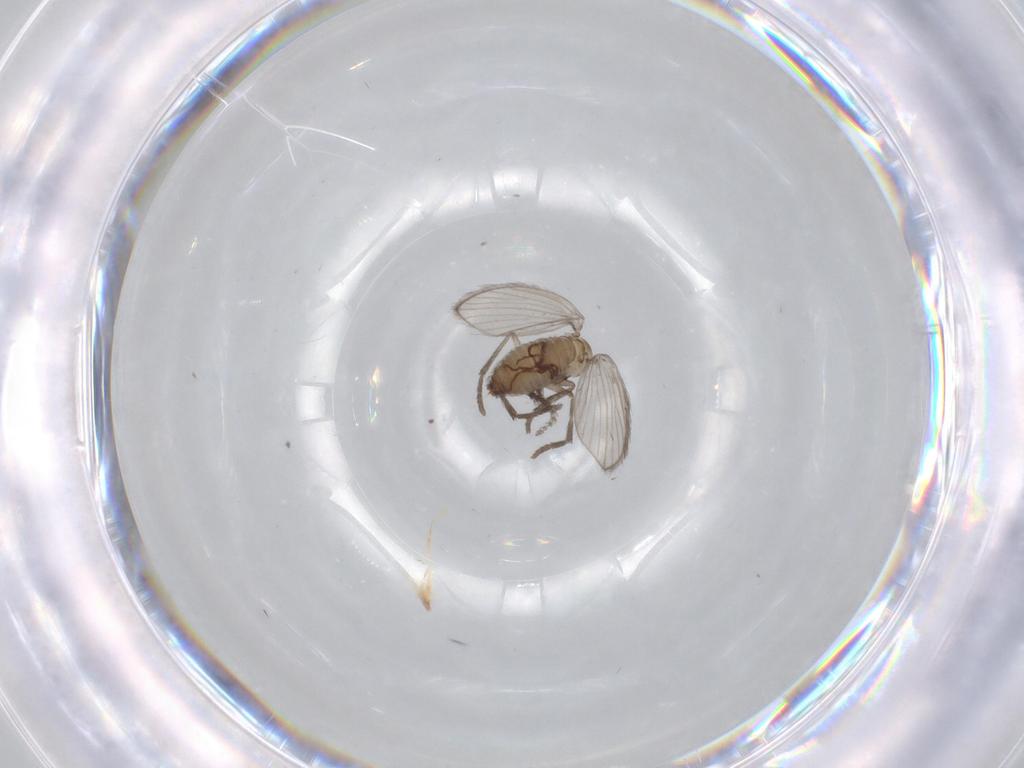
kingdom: Animalia
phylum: Arthropoda
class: Insecta
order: Diptera
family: Psychodidae
